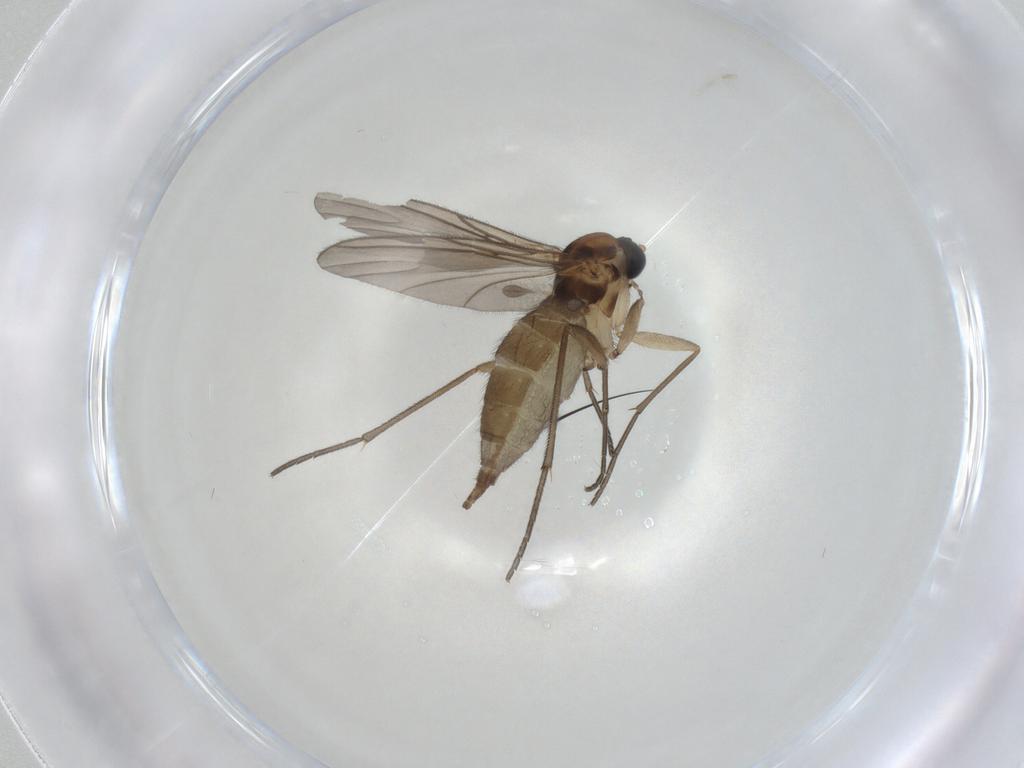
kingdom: Animalia
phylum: Arthropoda
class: Insecta
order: Diptera
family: Sciaridae
